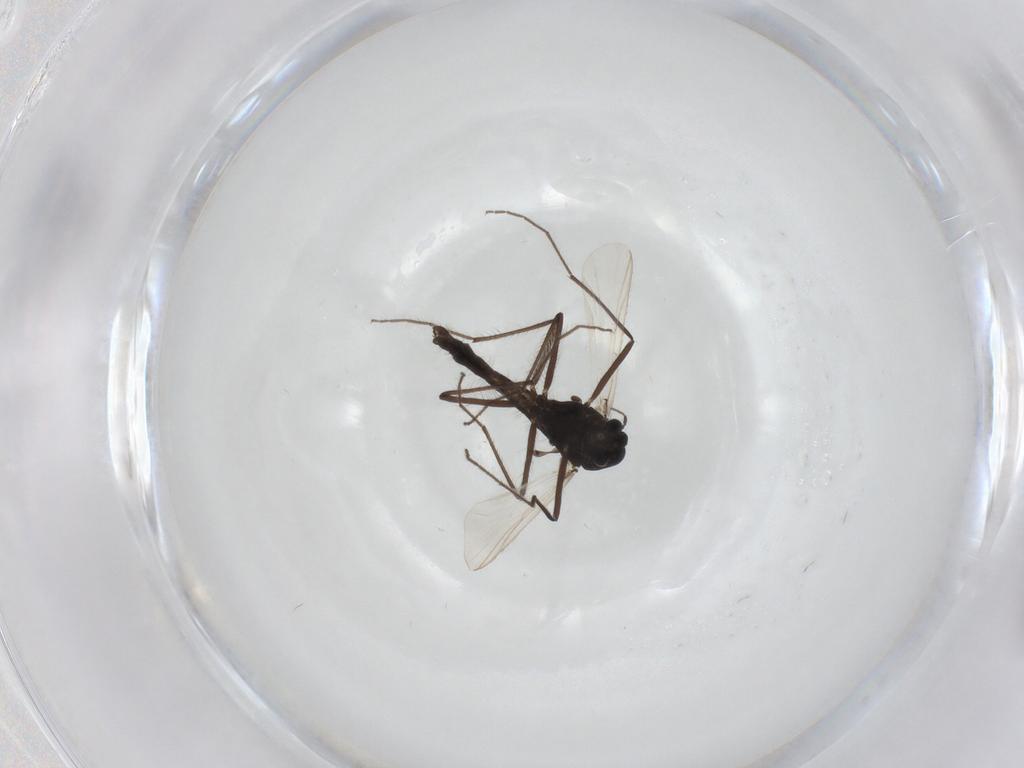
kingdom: Animalia
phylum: Arthropoda
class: Insecta
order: Diptera
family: Chironomidae
